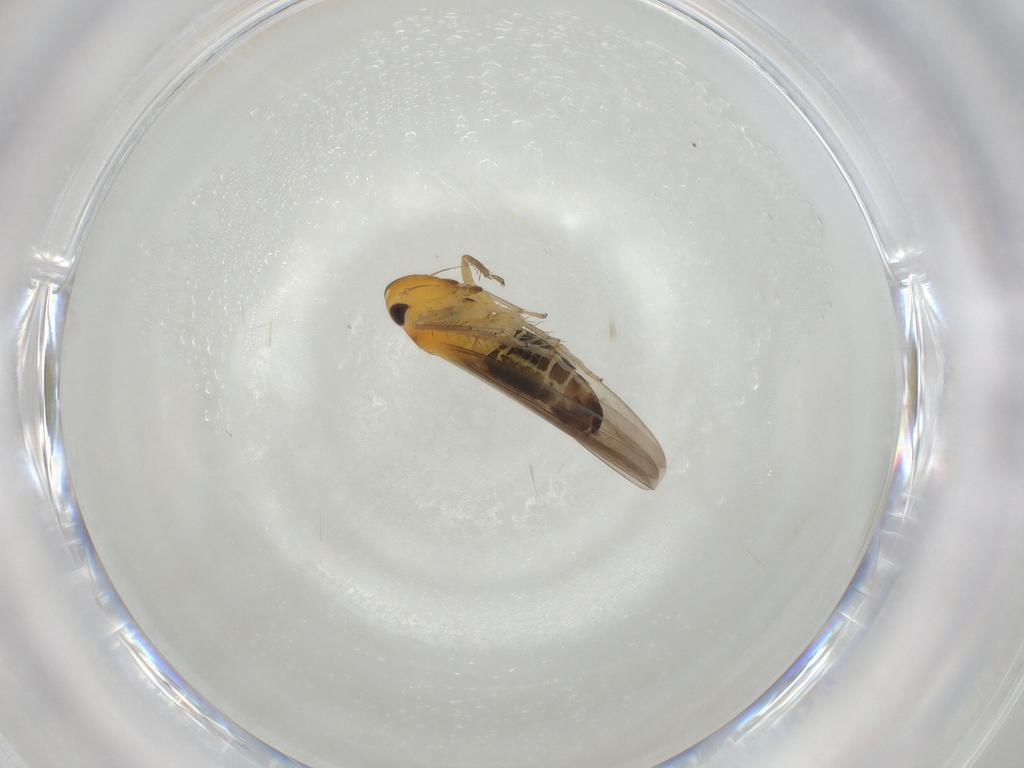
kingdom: Animalia
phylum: Arthropoda
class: Insecta
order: Hemiptera
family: Cicadellidae
